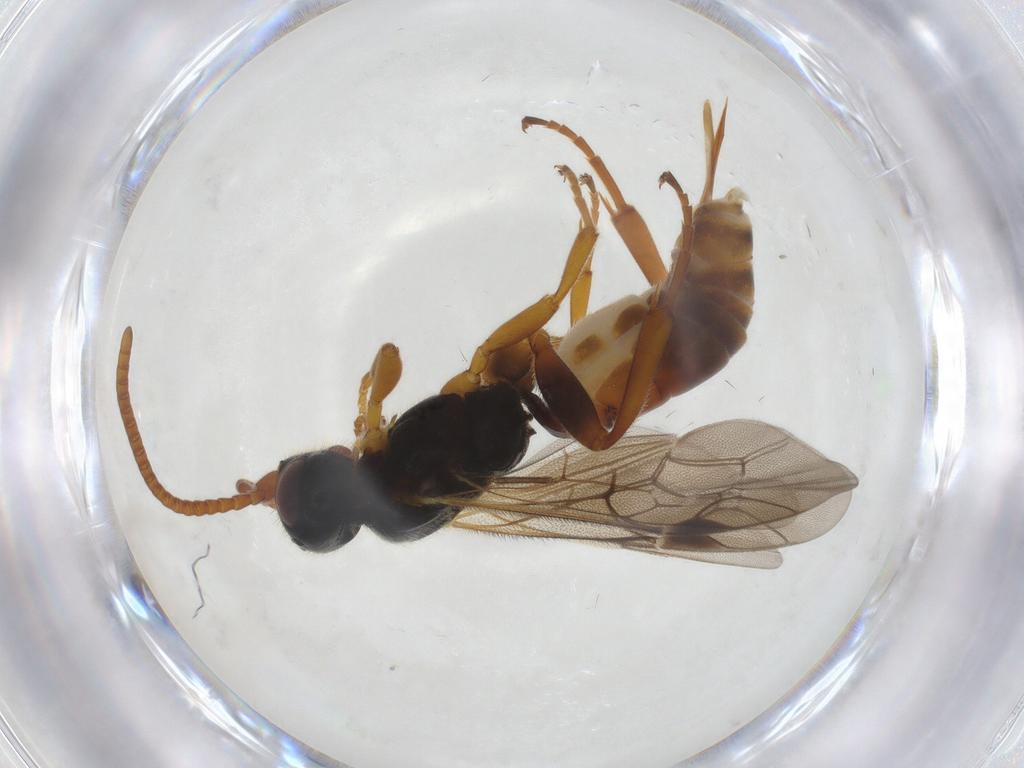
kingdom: Animalia
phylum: Arthropoda
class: Insecta
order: Hymenoptera
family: Ichneumonidae
